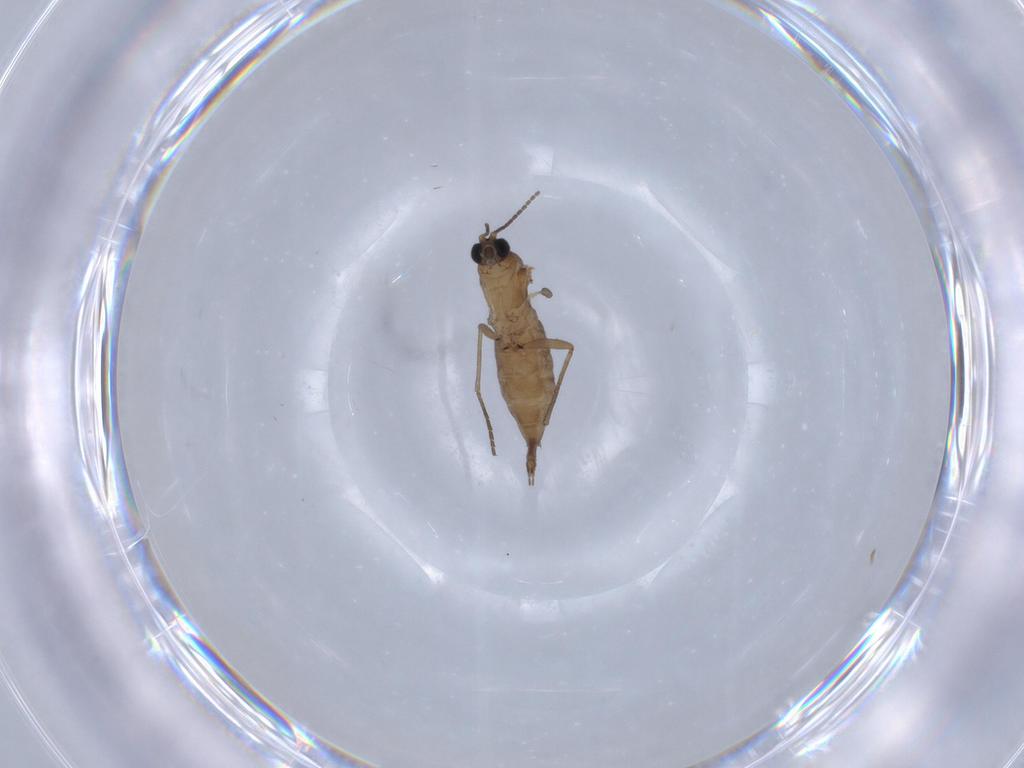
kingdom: Animalia
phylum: Arthropoda
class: Insecta
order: Diptera
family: Sciaridae
